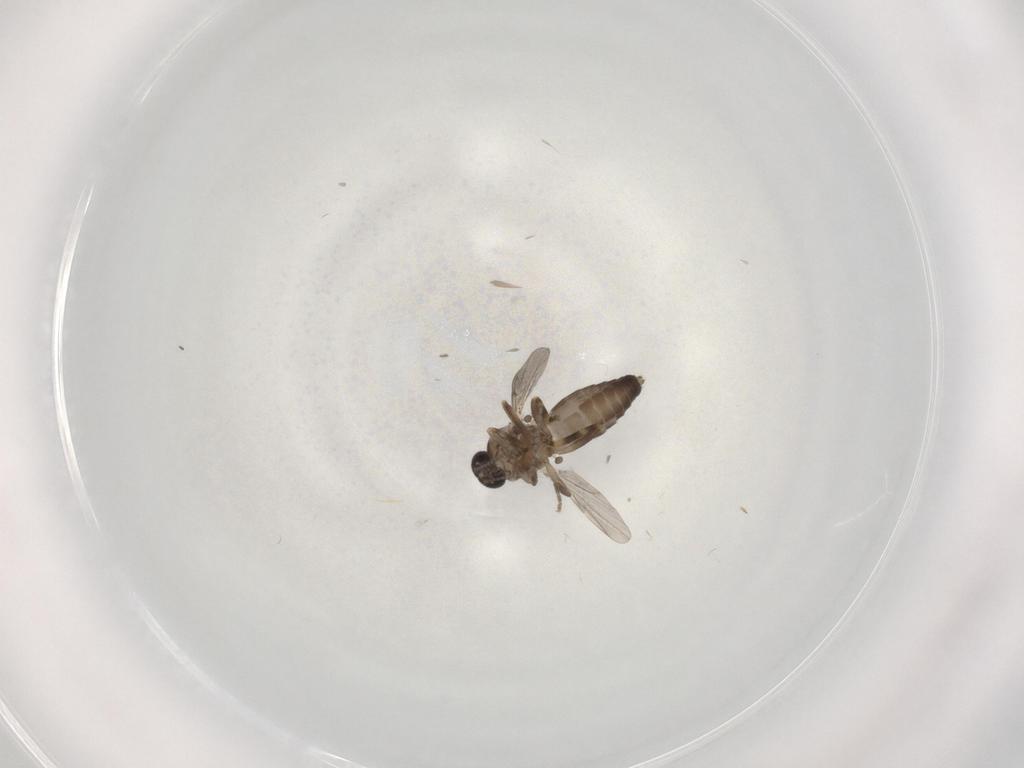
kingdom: Animalia
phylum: Arthropoda
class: Insecta
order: Diptera
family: Ceratopogonidae
